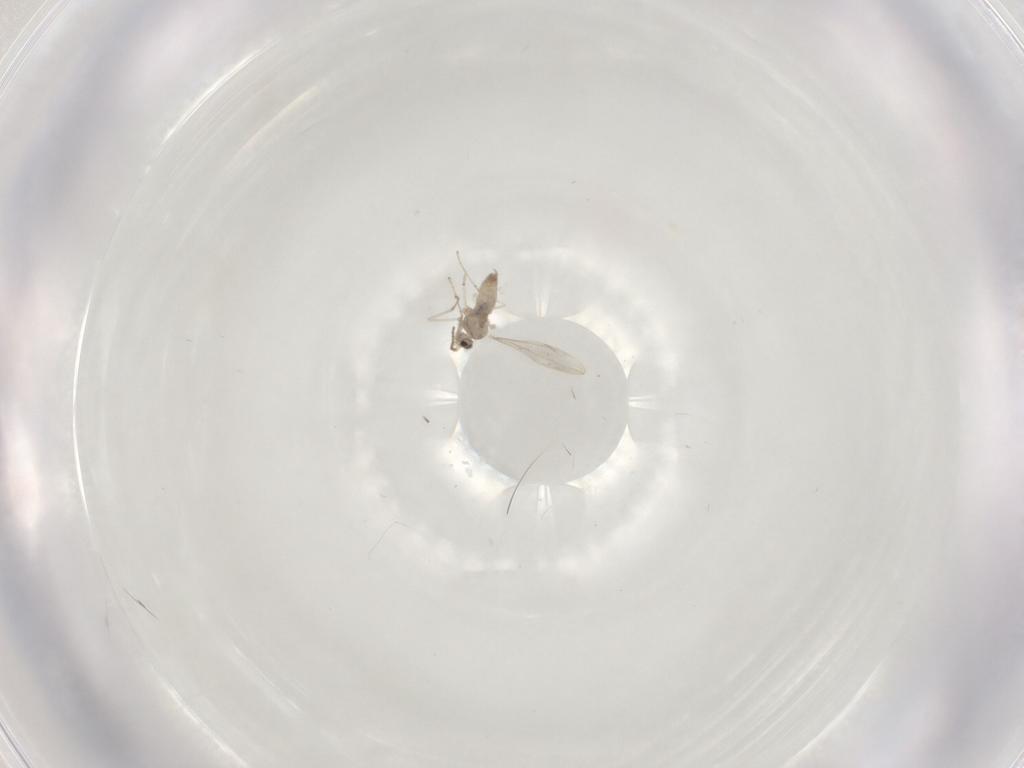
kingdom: Animalia
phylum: Arthropoda
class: Insecta
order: Diptera
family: Cecidomyiidae
